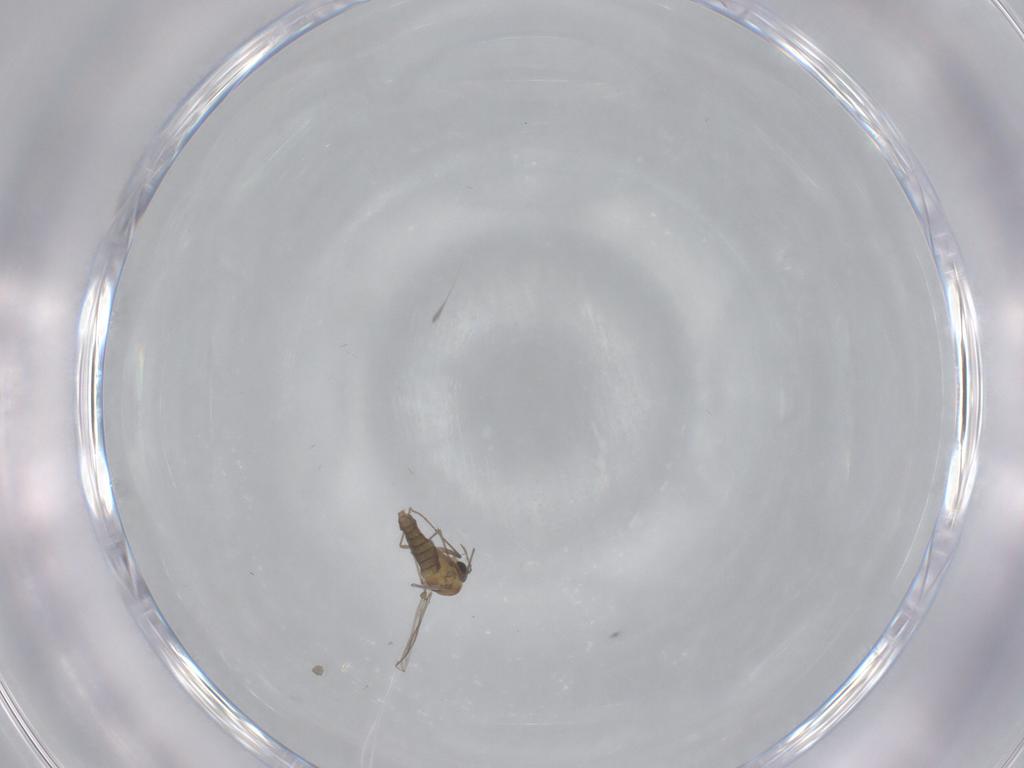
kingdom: Animalia
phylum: Arthropoda
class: Insecta
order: Diptera
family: Chironomidae
